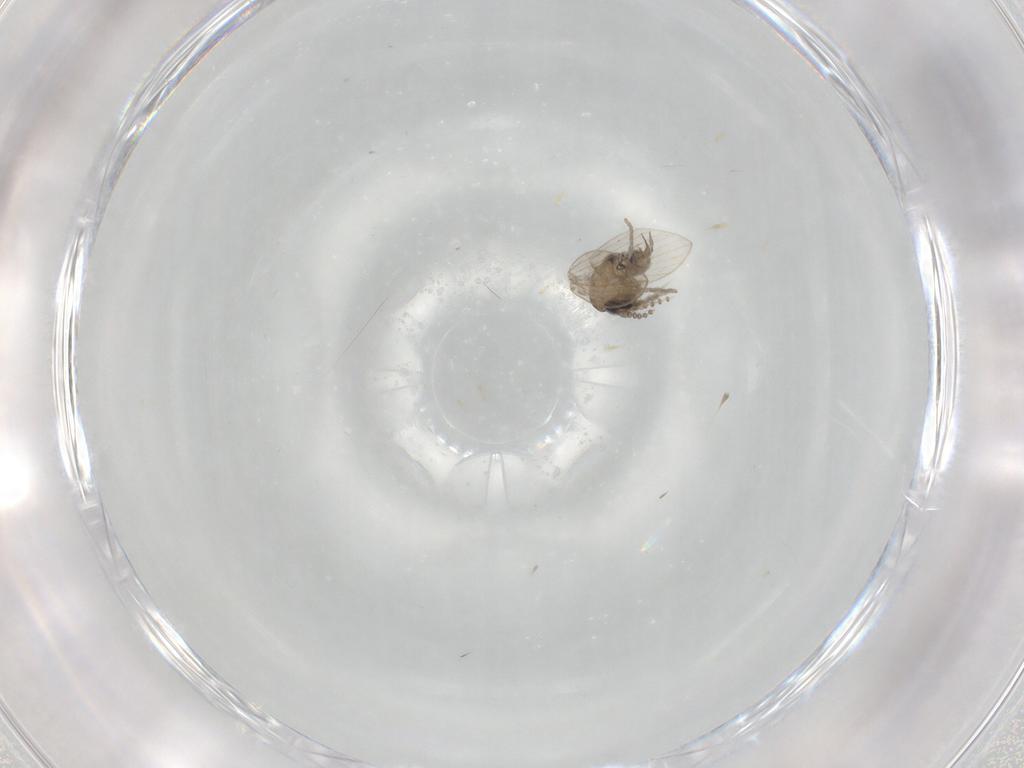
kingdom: Animalia
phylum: Arthropoda
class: Insecta
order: Diptera
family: Psychodidae
